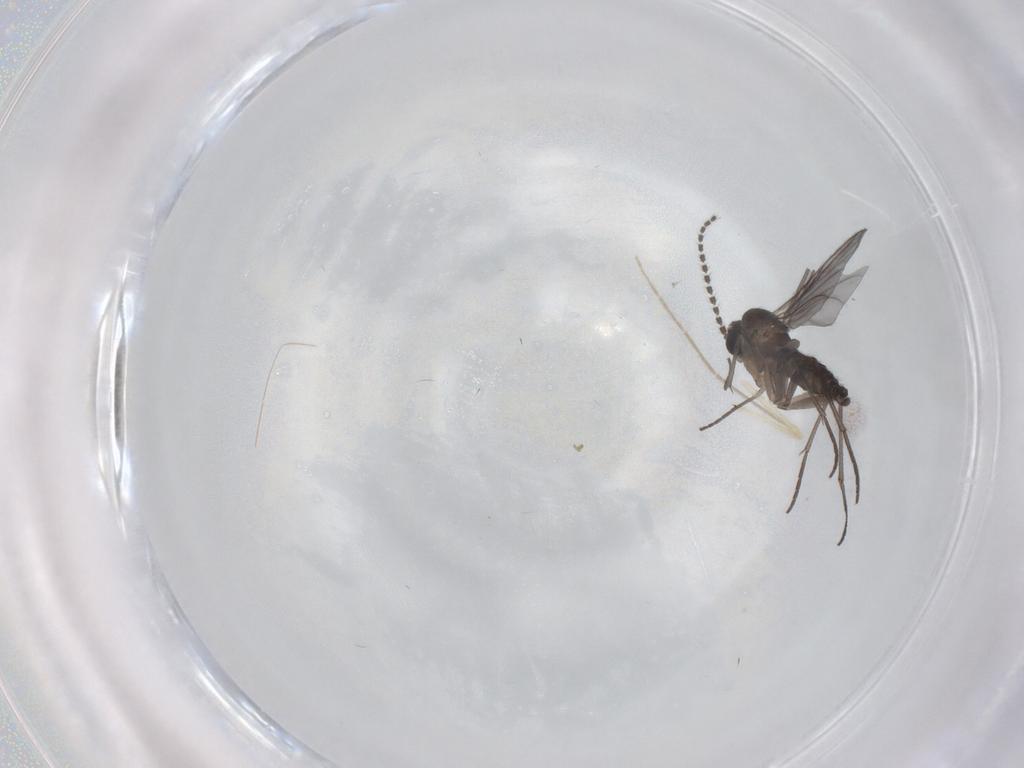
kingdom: Animalia
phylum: Arthropoda
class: Insecta
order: Diptera
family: Sciaridae
